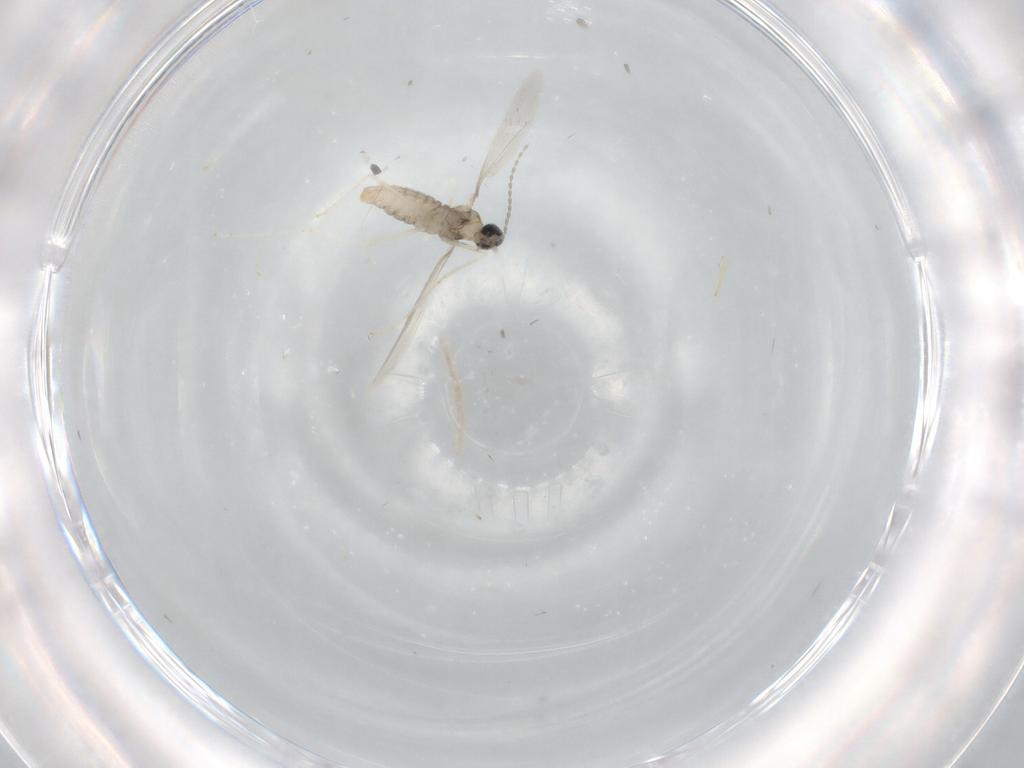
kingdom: Animalia
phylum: Arthropoda
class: Insecta
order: Diptera
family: Cecidomyiidae
